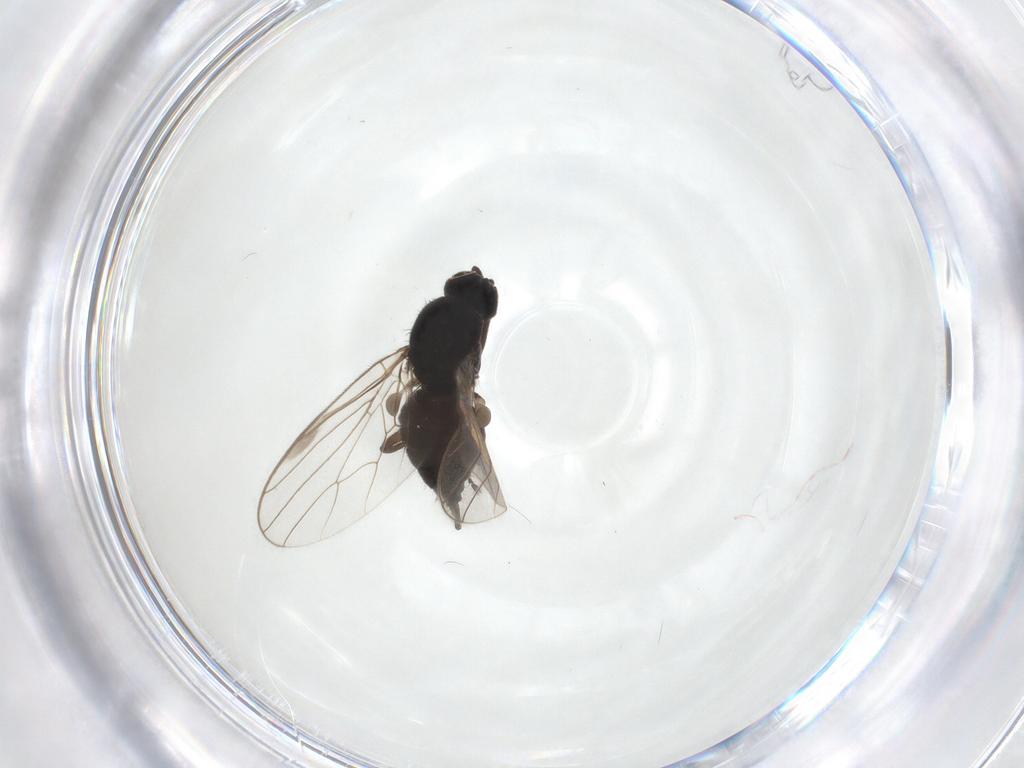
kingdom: Animalia
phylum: Arthropoda
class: Insecta
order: Diptera
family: Hybotidae
